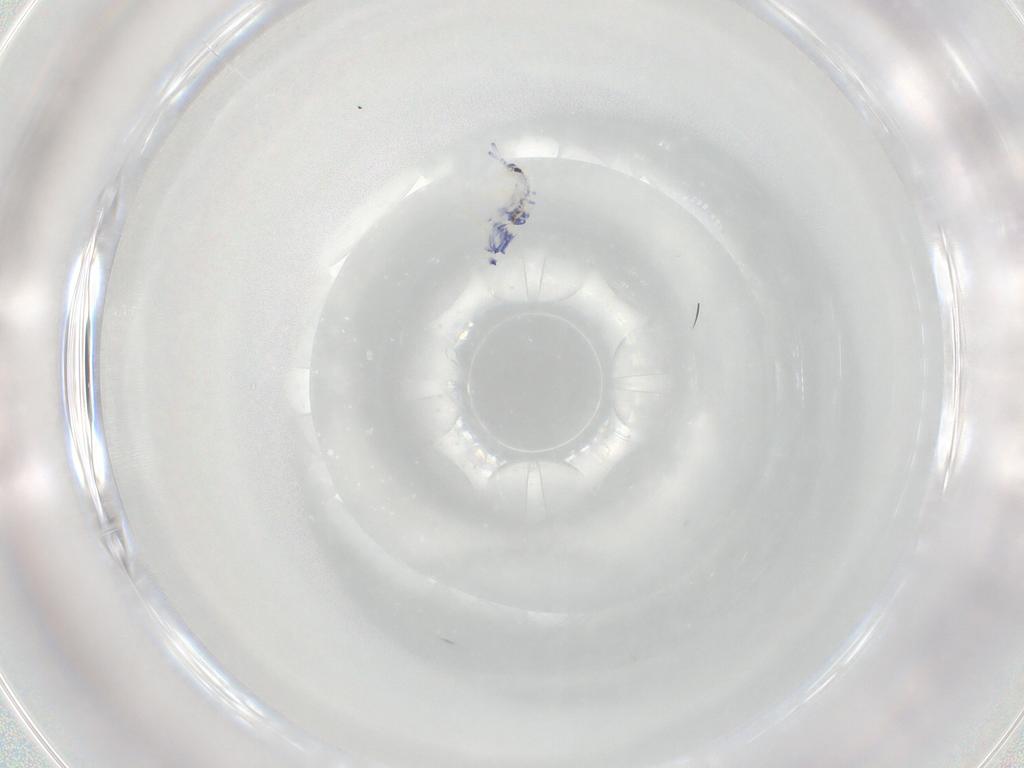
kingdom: Animalia
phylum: Arthropoda
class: Collembola
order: Entomobryomorpha
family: Entomobryidae
